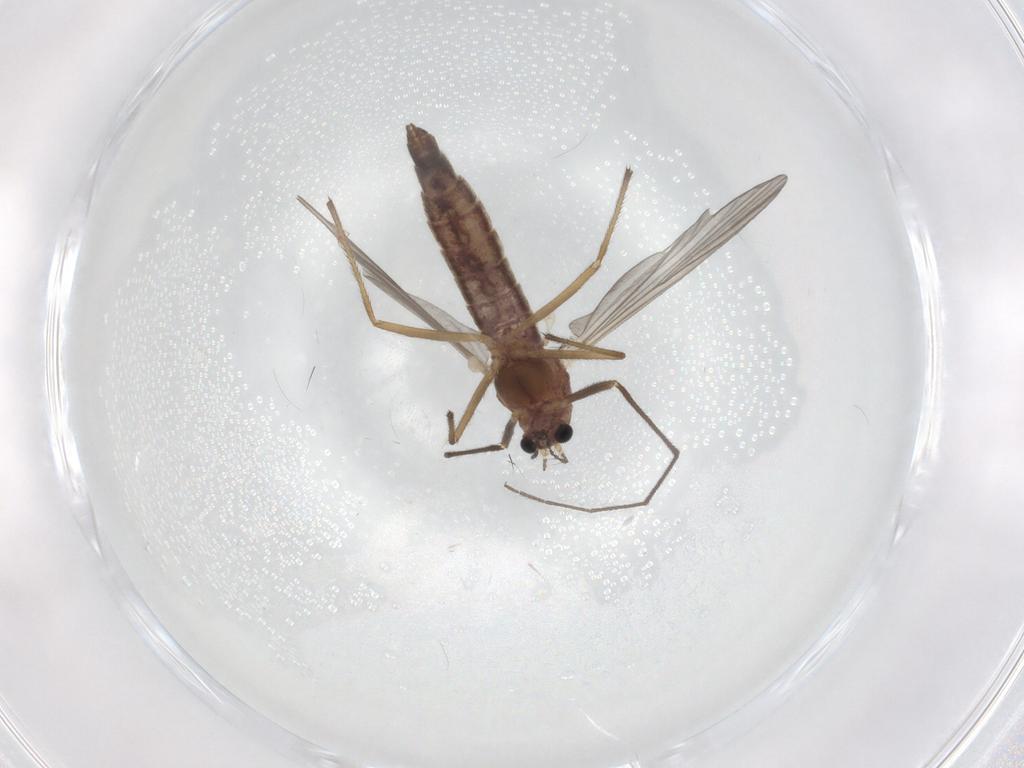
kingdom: Animalia
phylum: Arthropoda
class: Insecta
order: Diptera
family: Chironomidae
